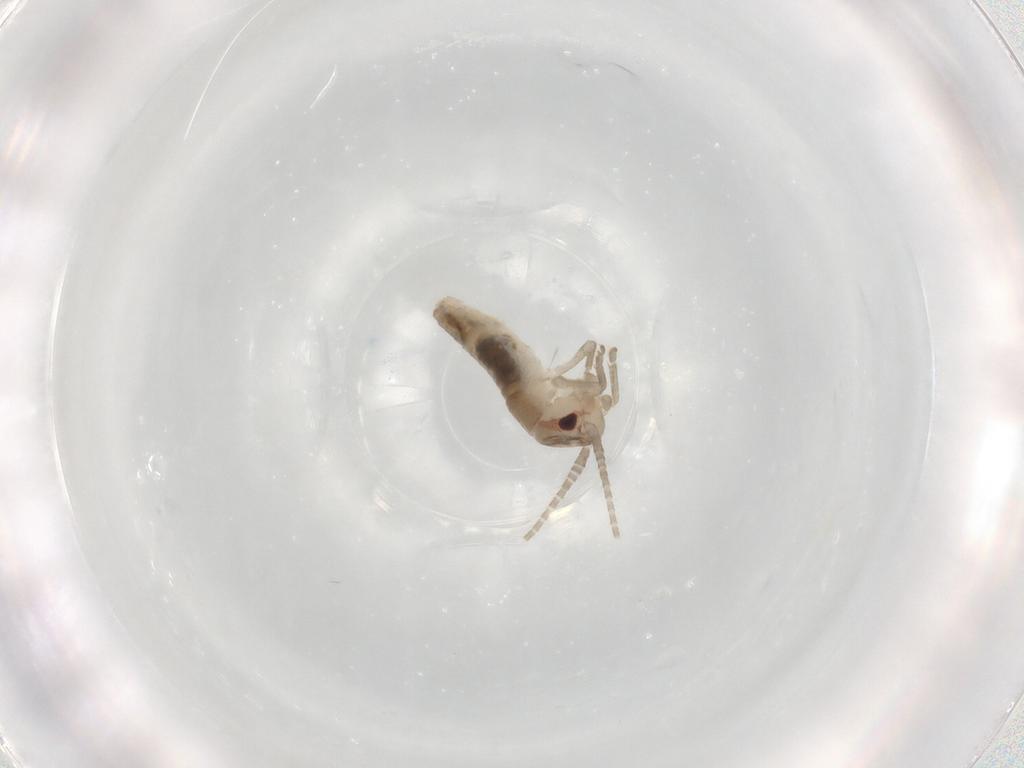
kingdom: Animalia
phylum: Arthropoda
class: Insecta
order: Orthoptera
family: Gryllidae
